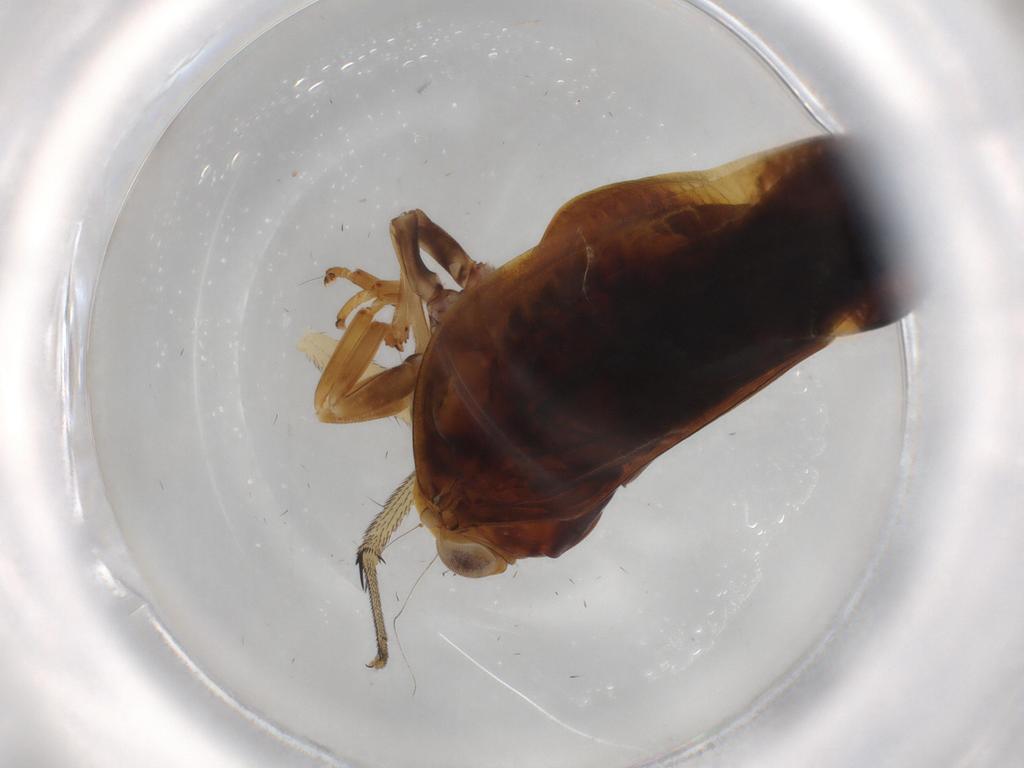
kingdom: Animalia
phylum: Arthropoda
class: Insecta
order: Hemiptera
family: Nogodinidae
